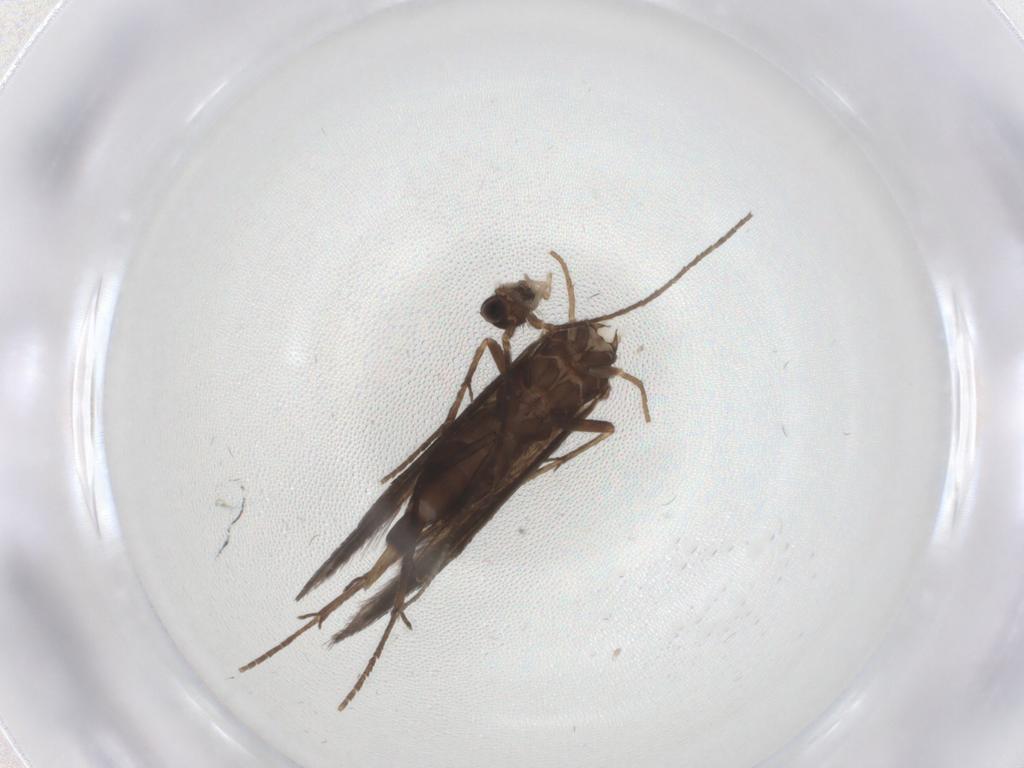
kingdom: Animalia
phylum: Arthropoda
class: Insecta
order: Trichoptera
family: Xiphocentronidae
